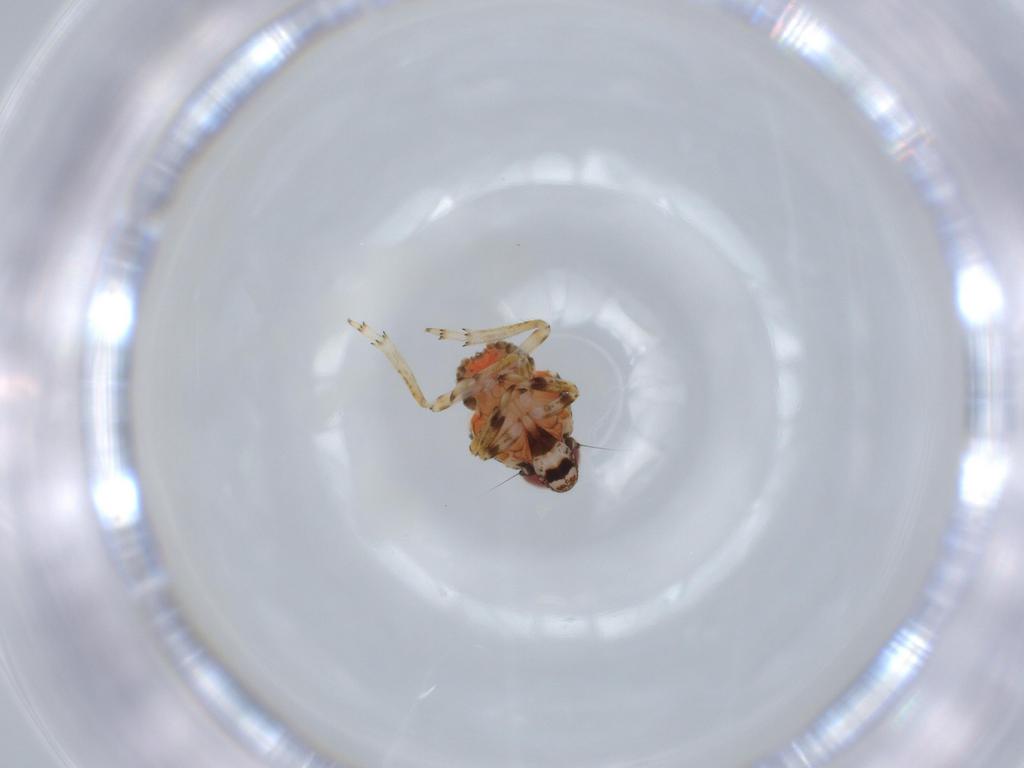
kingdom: Animalia
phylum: Arthropoda
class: Insecta
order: Hemiptera
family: Issidae
